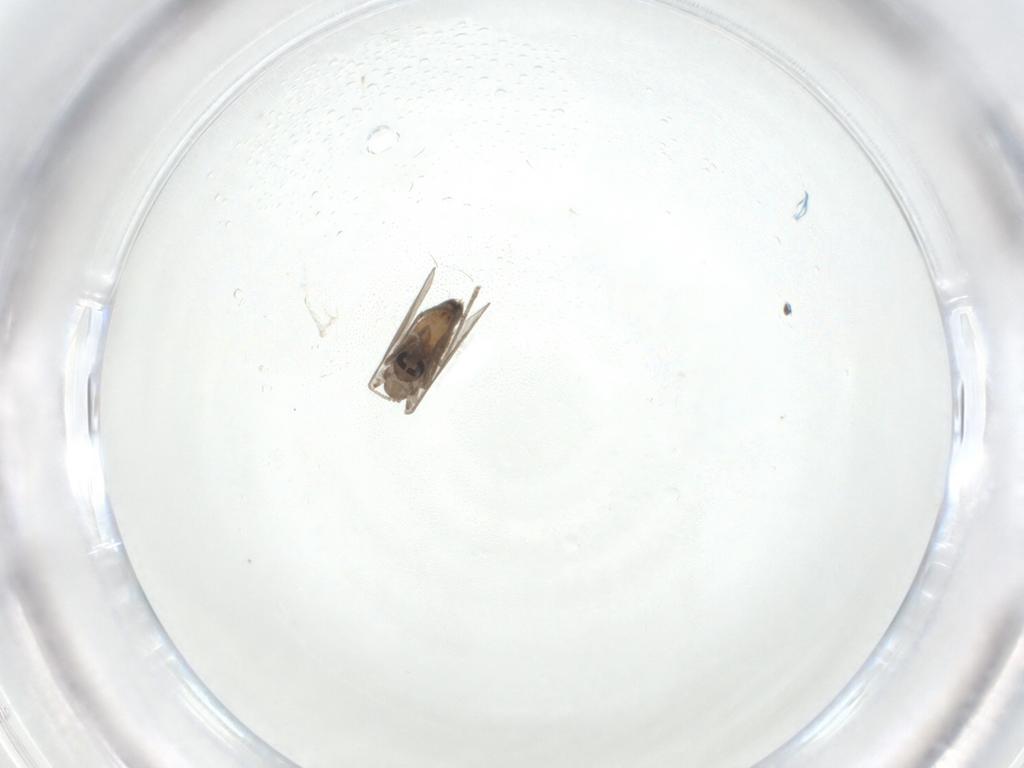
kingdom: Animalia
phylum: Arthropoda
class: Insecta
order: Diptera
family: Psychodidae
